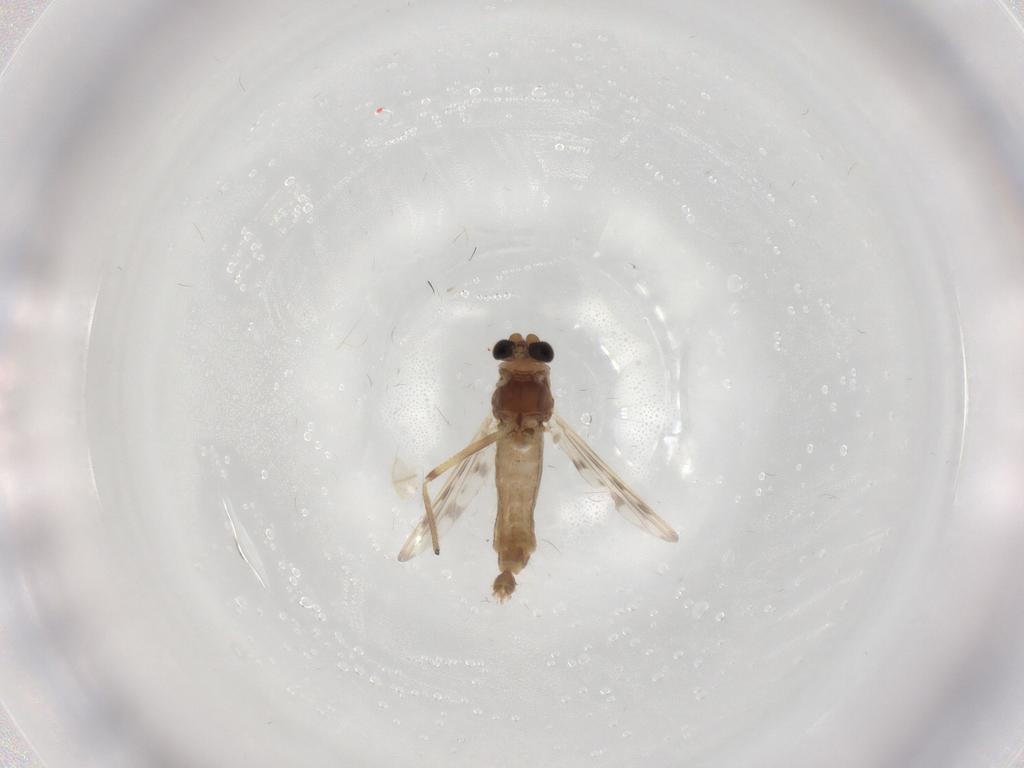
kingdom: Animalia
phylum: Arthropoda
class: Insecta
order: Diptera
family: Chironomidae
